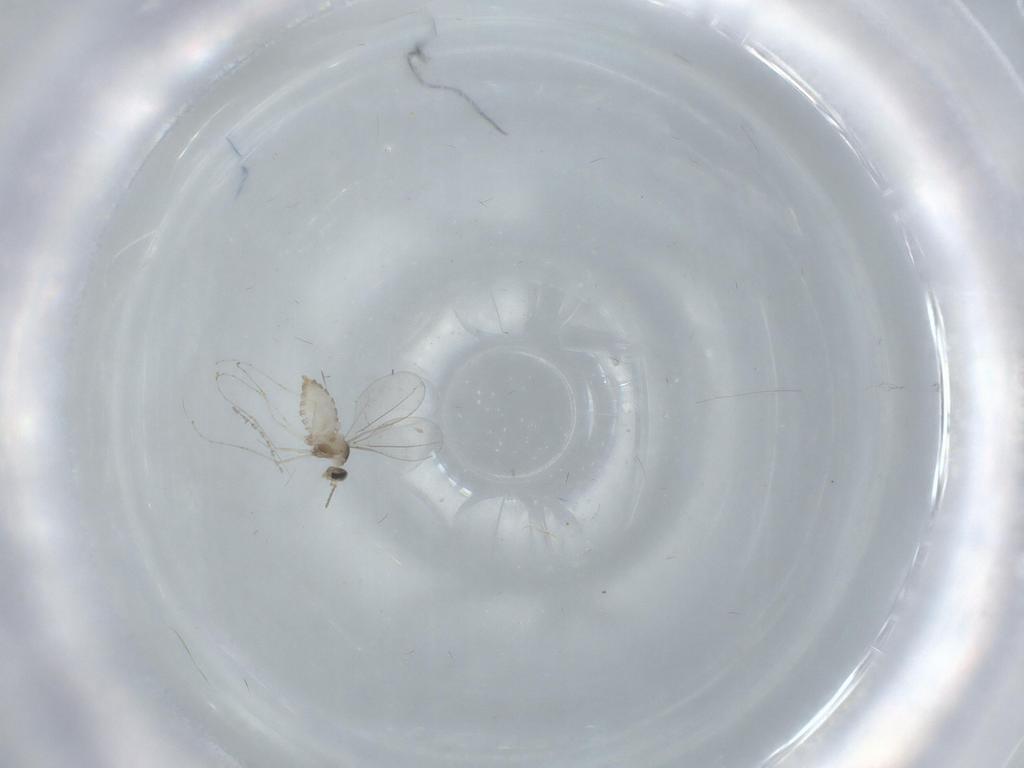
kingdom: Animalia
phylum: Arthropoda
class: Insecta
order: Diptera
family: Cecidomyiidae
